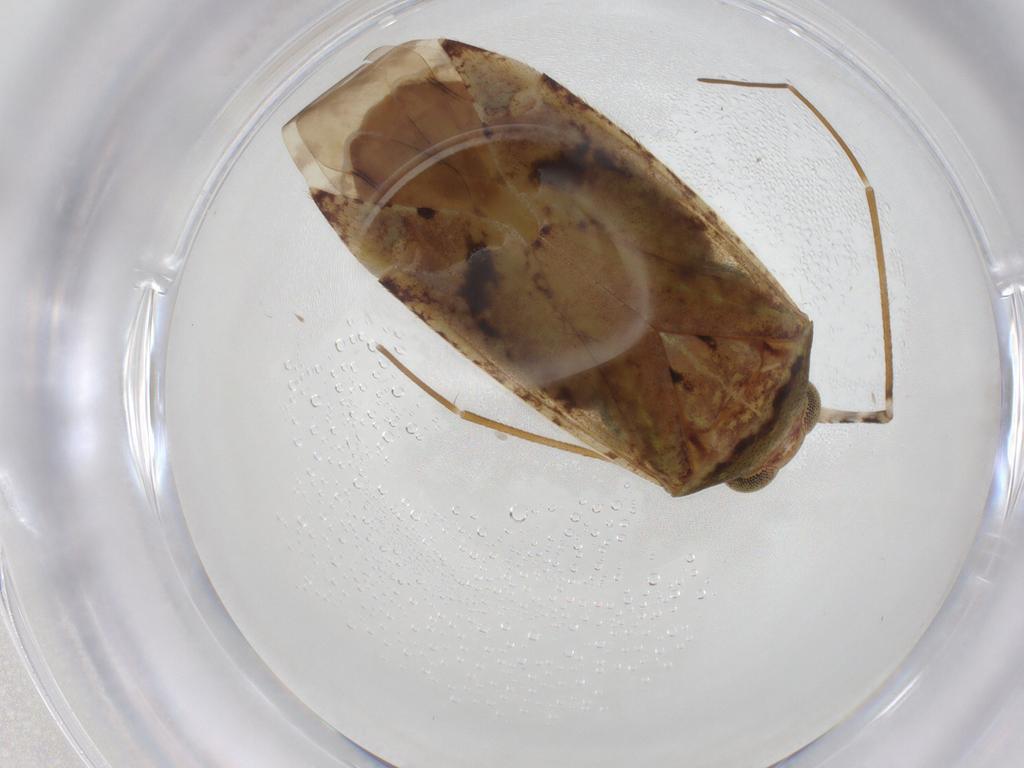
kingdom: Animalia
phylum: Arthropoda
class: Insecta
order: Hemiptera
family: Miridae
